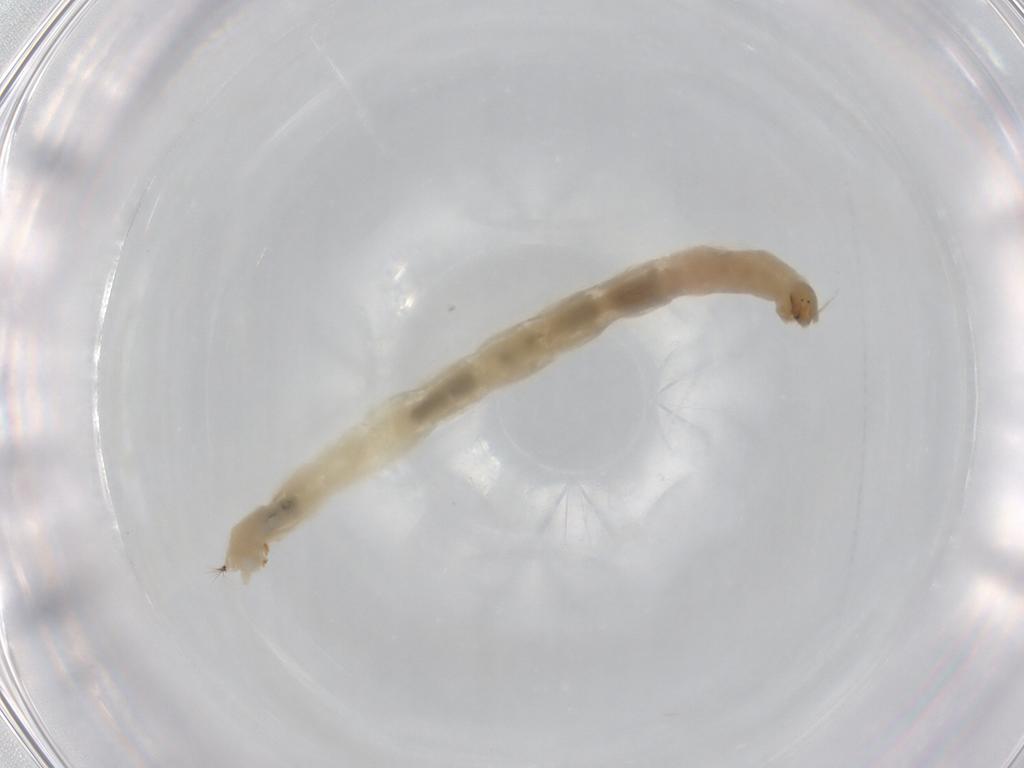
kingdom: Animalia
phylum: Arthropoda
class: Insecta
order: Diptera
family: Chironomidae
